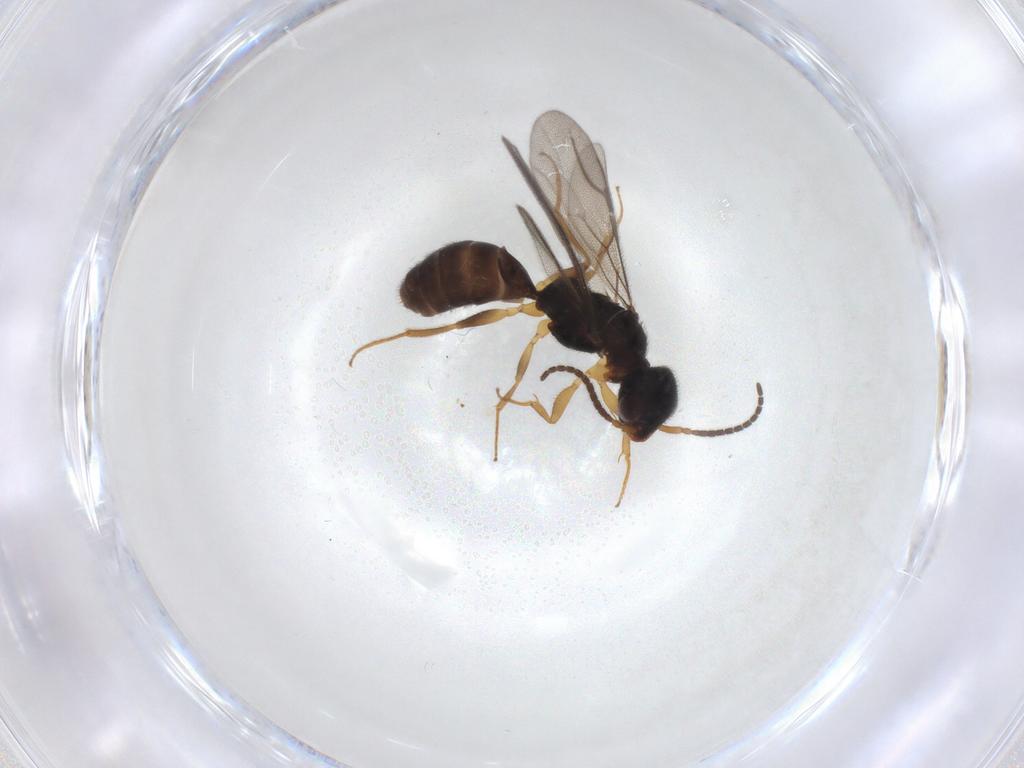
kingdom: Animalia
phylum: Arthropoda
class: Insecta
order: Hymenoptera
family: Bethylidae
